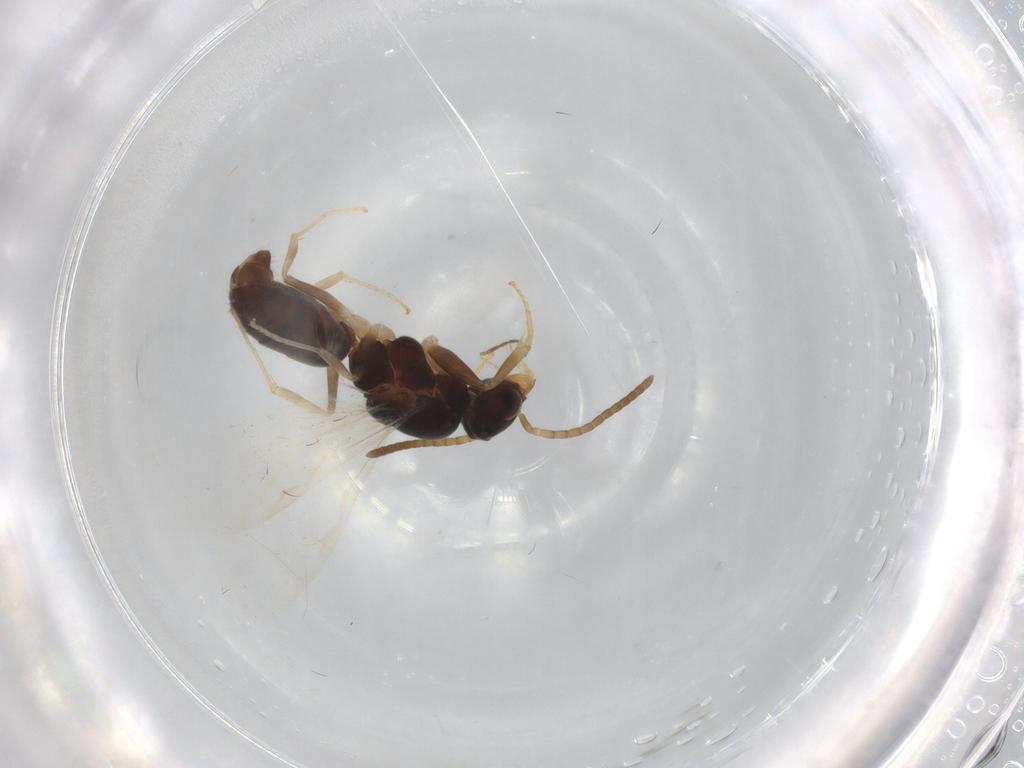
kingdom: Animalia
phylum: Arthropoda
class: Insecta
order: Hymenoptera
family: Formicidae
